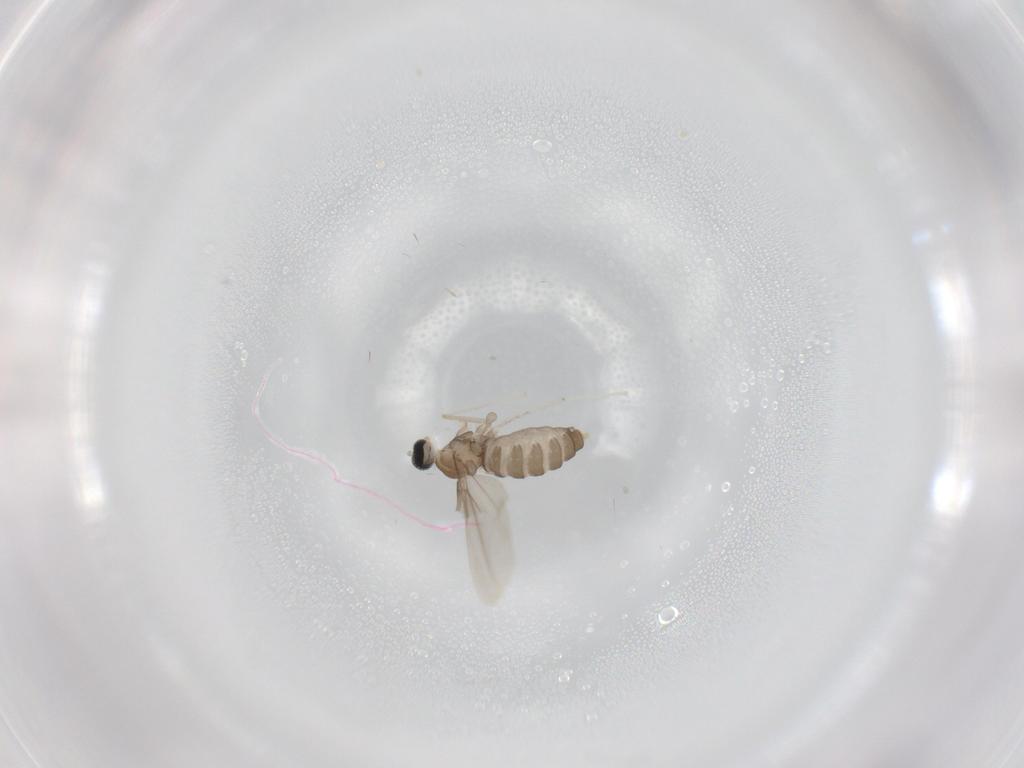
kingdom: Animalia
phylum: Arthropoda
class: Insecta
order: Diptera
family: Cecidomyiidae
